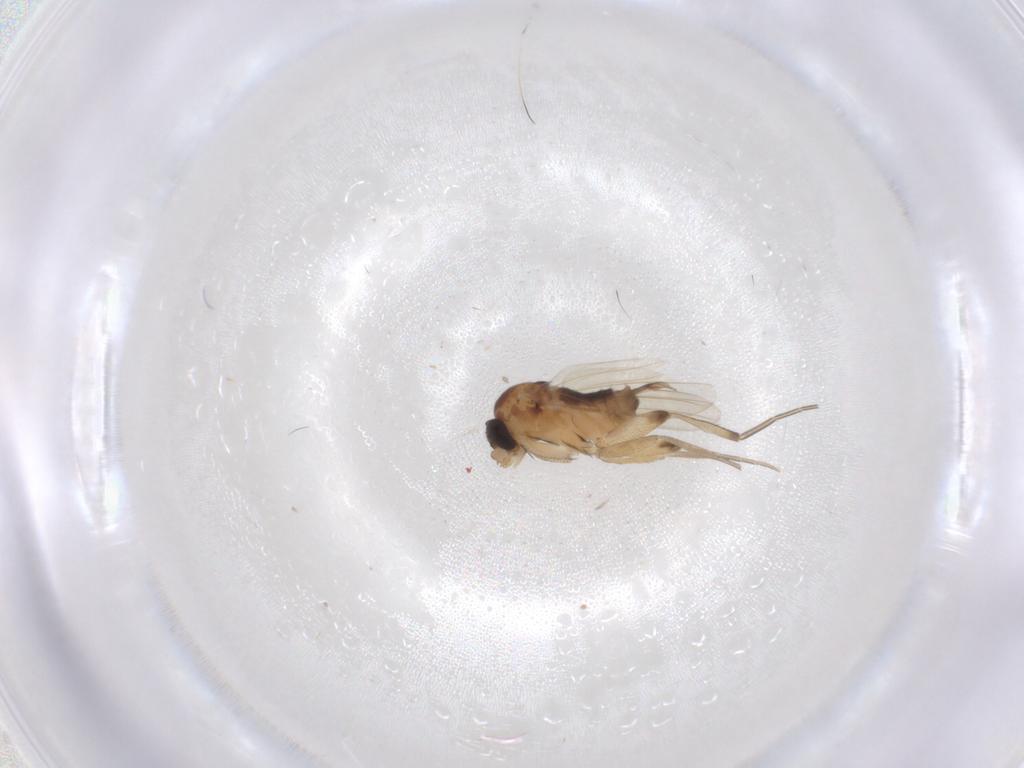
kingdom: Animalia
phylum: Arthropoda
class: Insecta
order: Diptera
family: Phoridae
